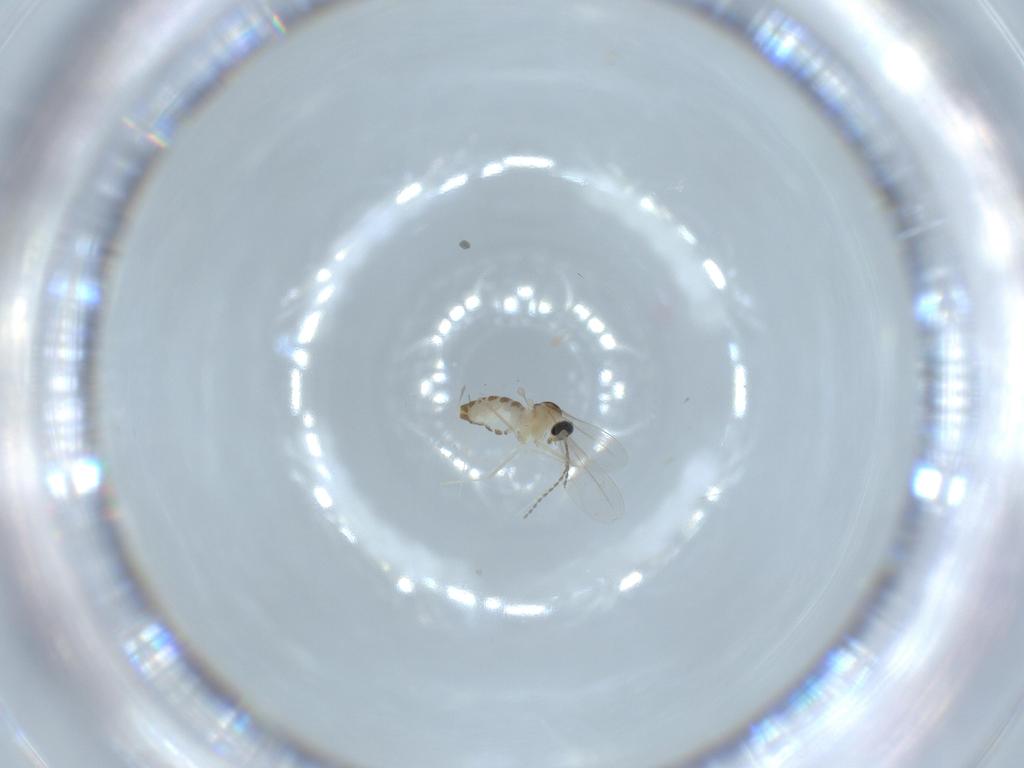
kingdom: Animalia
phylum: Arthropoda
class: Insecta
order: Diptera
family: Cecidomyiidae
